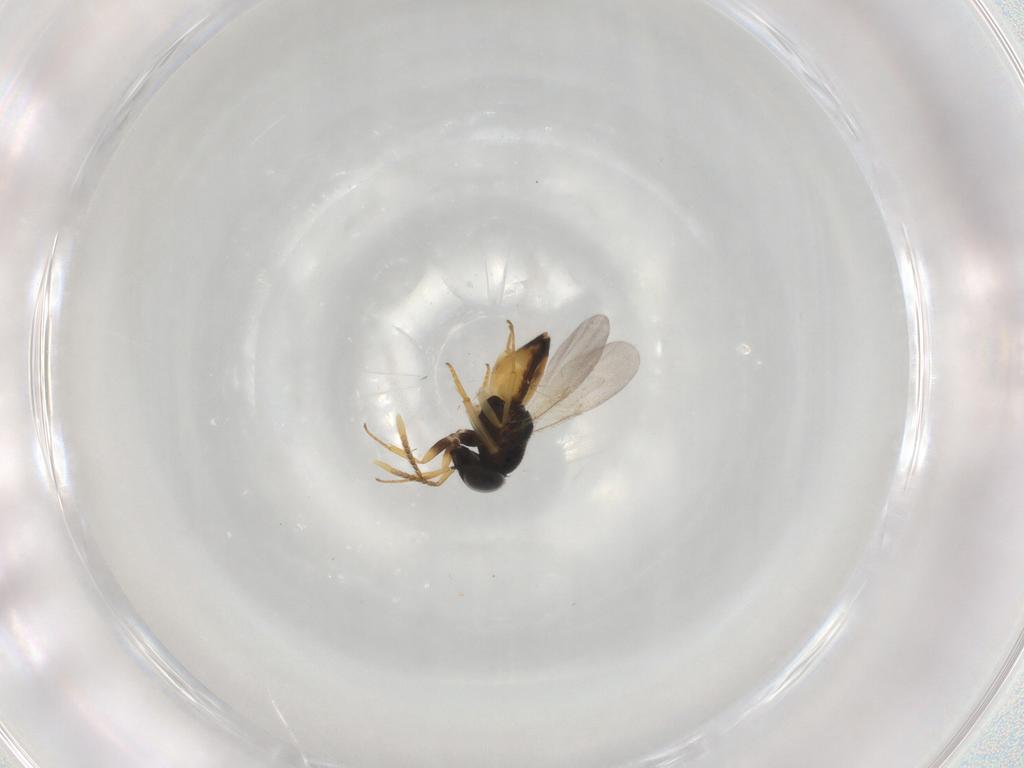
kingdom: Animalia
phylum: Arthropoda
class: Insecta
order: Hymenoptera
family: Encyrtidae
